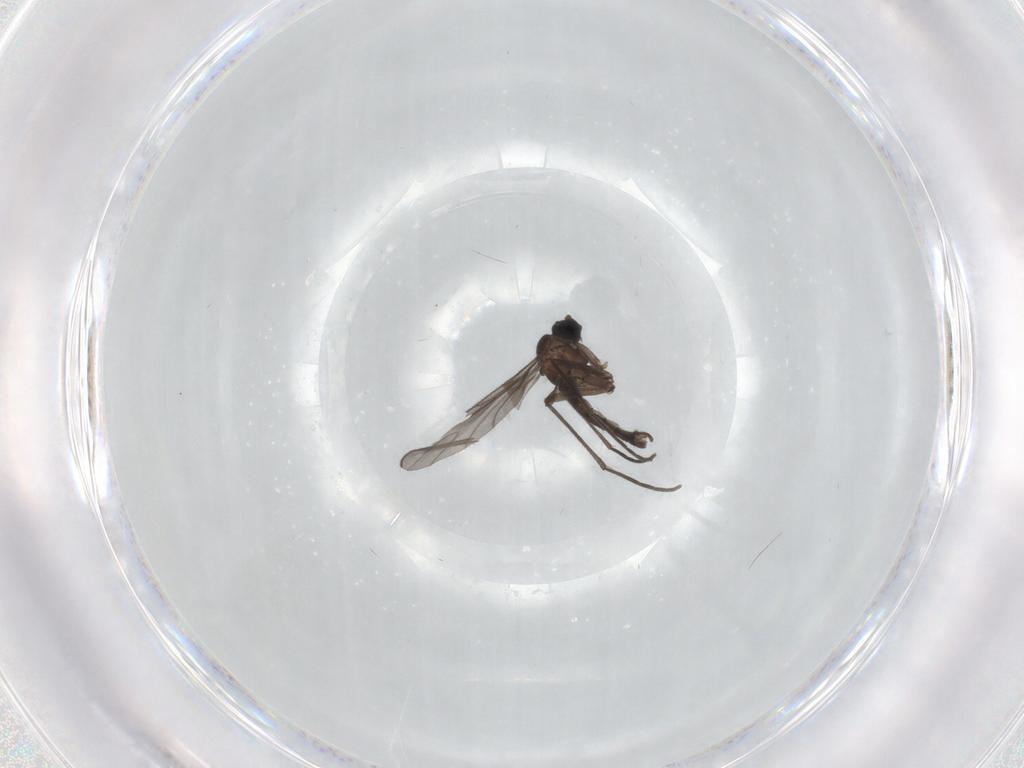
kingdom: Animalia
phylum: Arthropoda
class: Insecta
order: Diptera
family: Sciaridae
